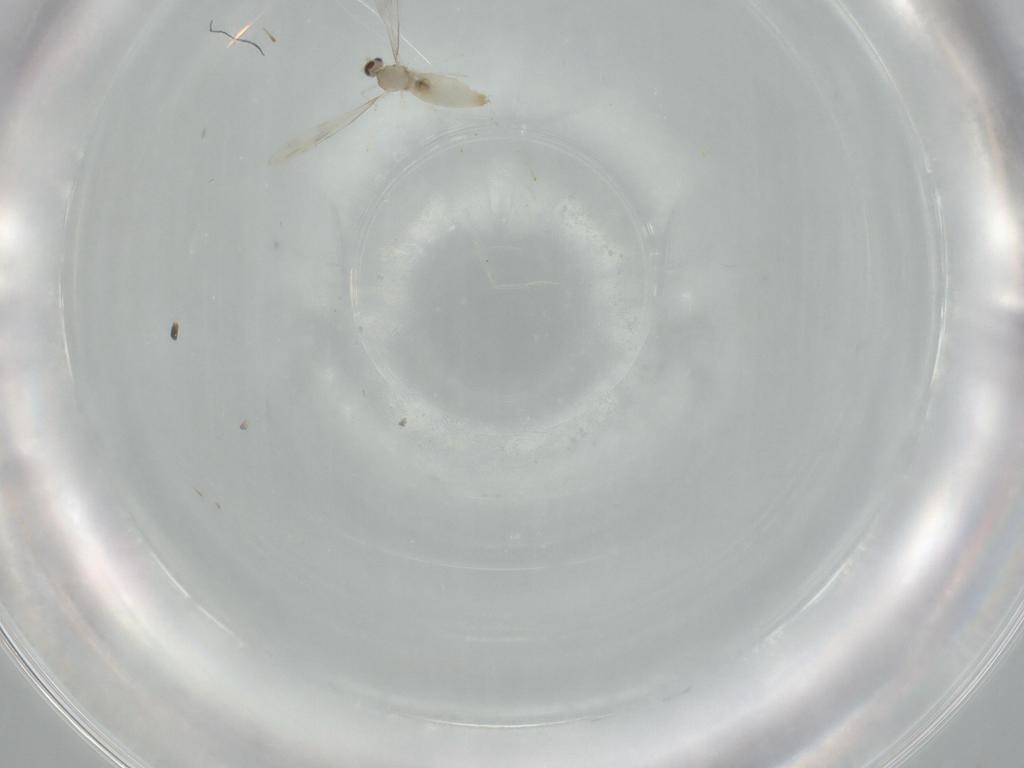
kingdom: Animalia
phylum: Arthropoda
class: Insecta
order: Diptera
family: Cecidomyiidae
